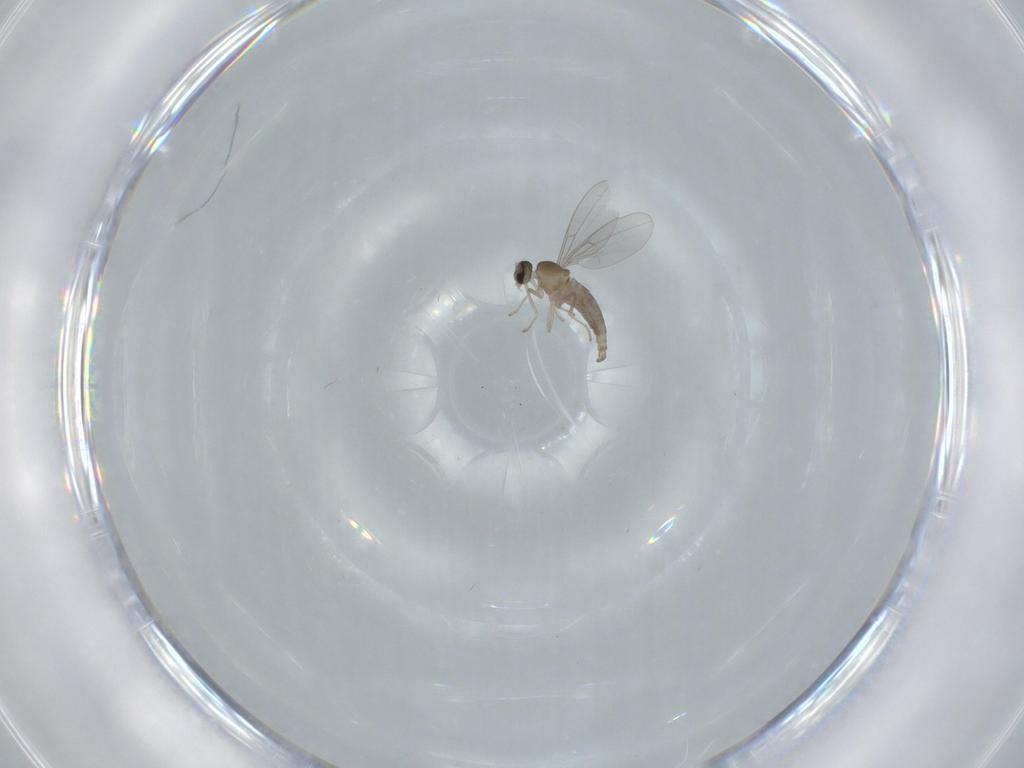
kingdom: Animalia
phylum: Arthropoda
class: Insecta
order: Diptera
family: Cecidomyiidae
